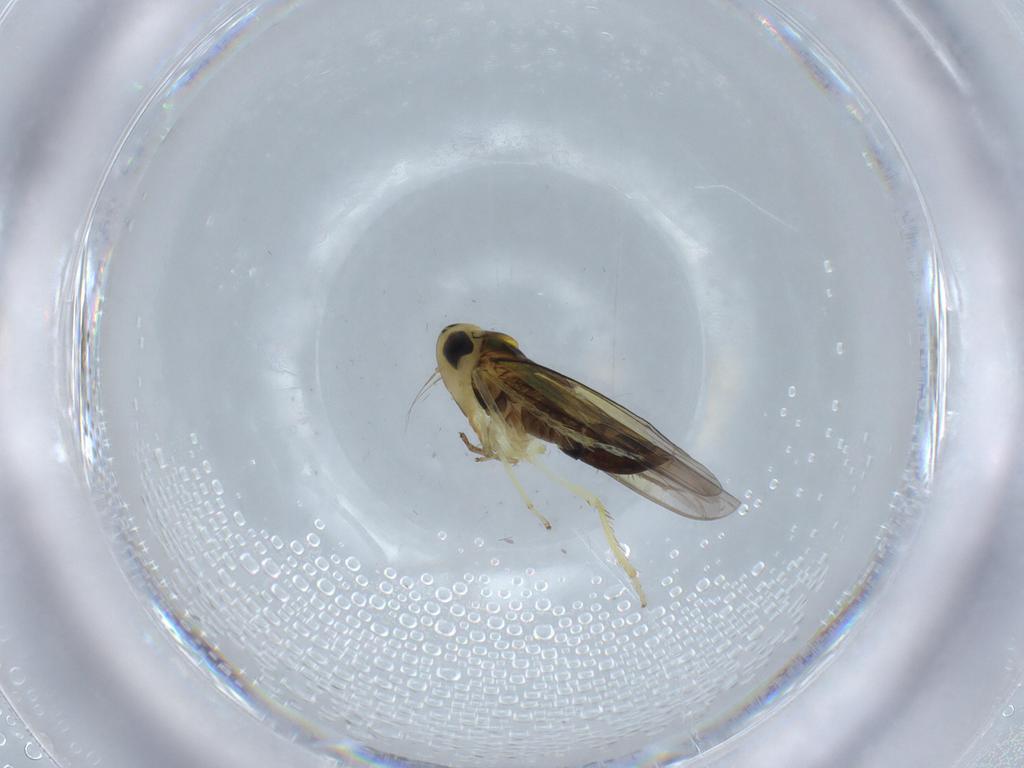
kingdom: Animalia
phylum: Arthropoda
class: Insecta
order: Hemiptera
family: Cicadellidae
